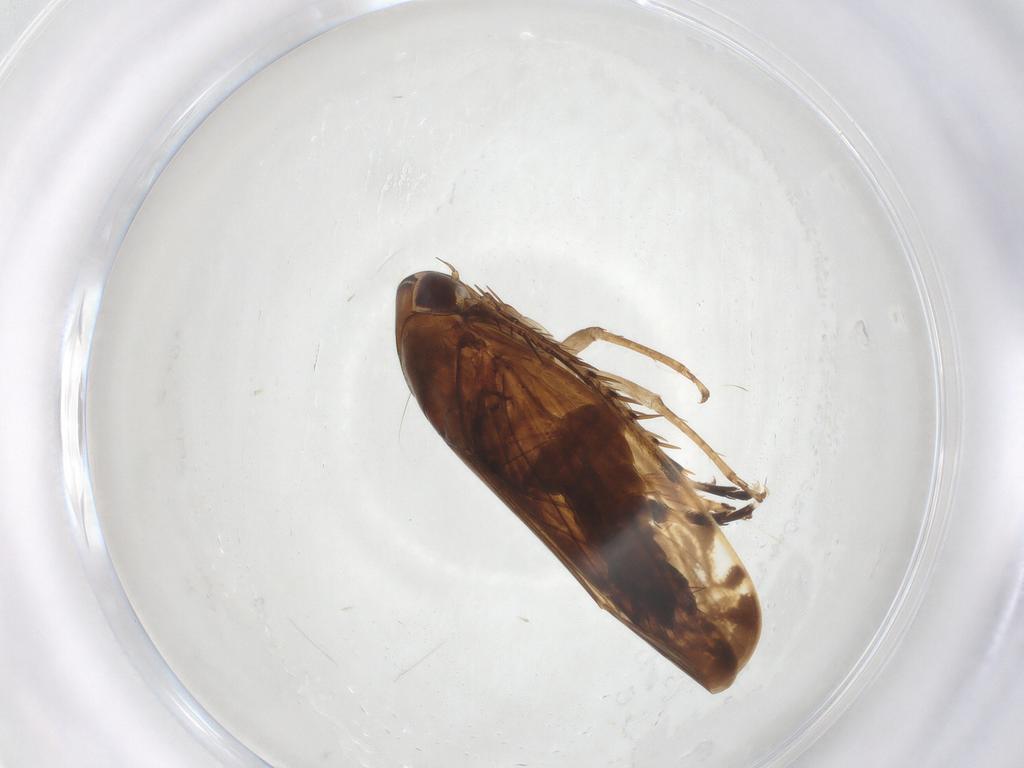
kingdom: Animalia
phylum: Arthropoda
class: Insecta
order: Hemiptera
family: Cicadellidae
